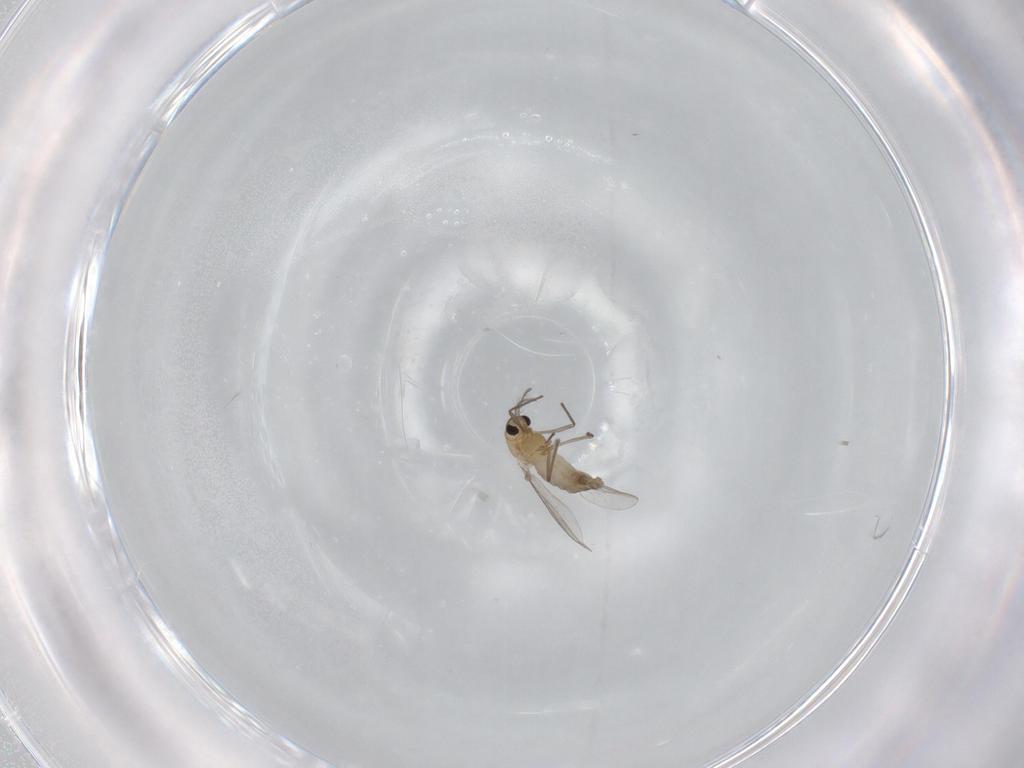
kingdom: Animalia
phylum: Arthropoda
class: Insecta
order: Diptera
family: Chironomidae
